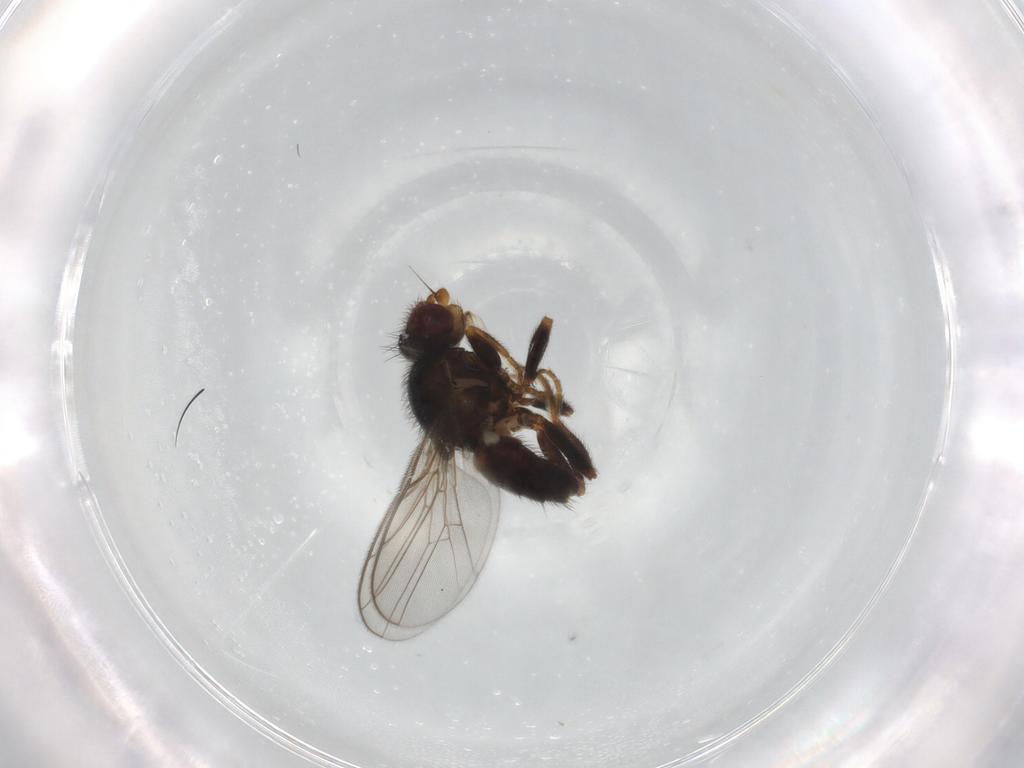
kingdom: Animalia
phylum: Arthropoda
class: Insecta
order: Diptera
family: Chloropidae
